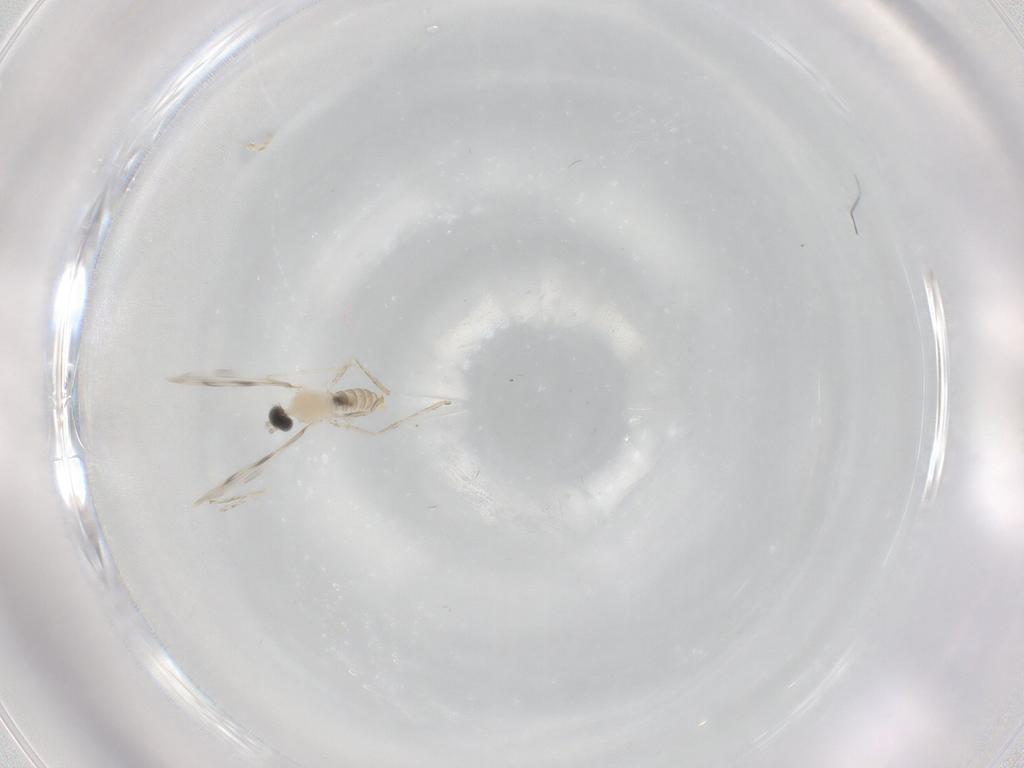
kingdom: Animalia
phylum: Arthropoda
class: Insecta
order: Diptera
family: Cecidomyiidae
